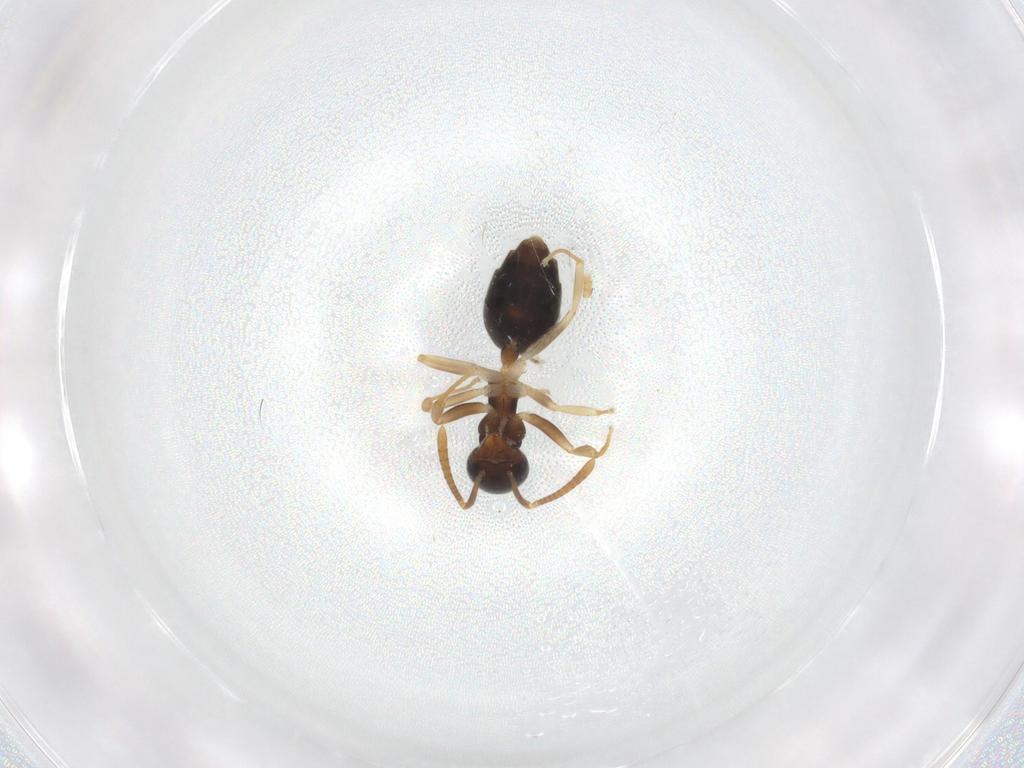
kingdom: Animalia
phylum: Arthropoda
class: Insecta
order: Hymenoptera
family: Formicidae
